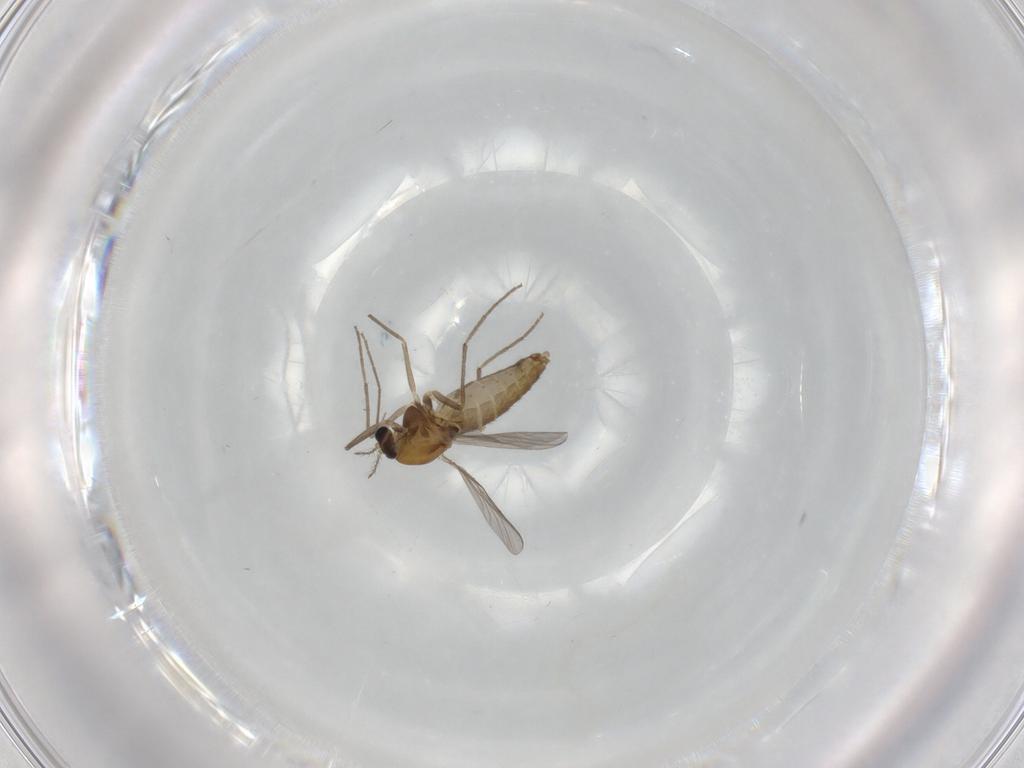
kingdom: Animalia
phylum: Arthropoda
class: Insecta
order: Diptera
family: Chironomidae
